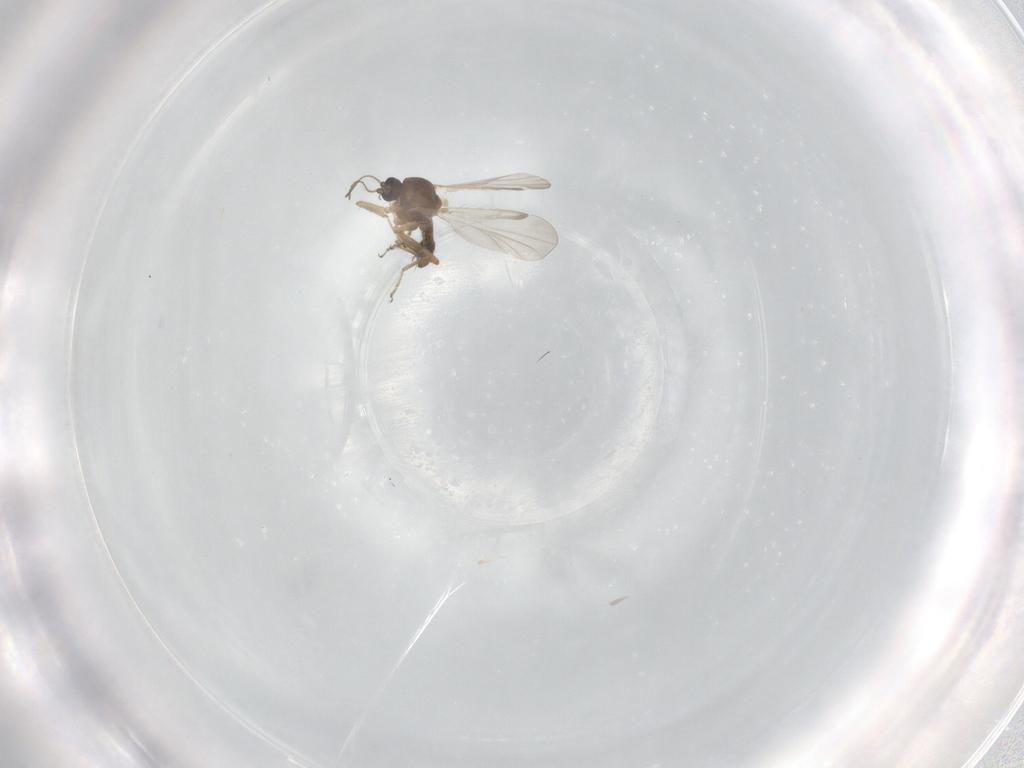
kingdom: Animalia
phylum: Arthropoda
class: Insecta
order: Diptera
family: Ceratopogonidae
